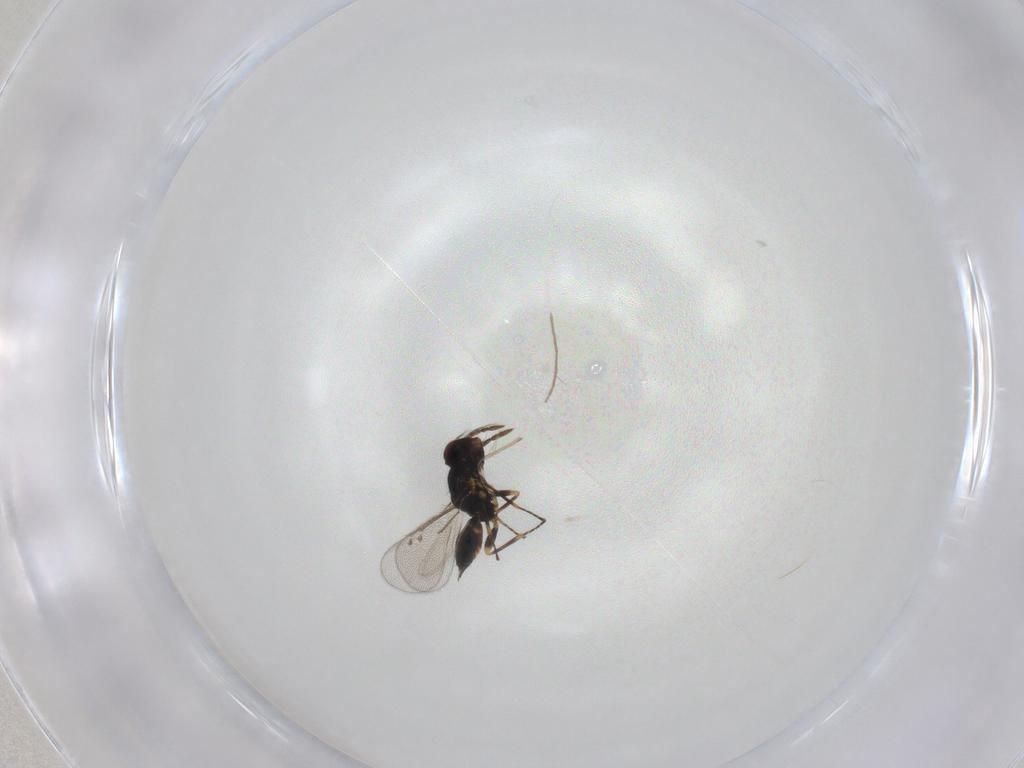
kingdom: Animalia
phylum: Arthropoda
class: Insecta
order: Hymenoptera
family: Eulophidae
